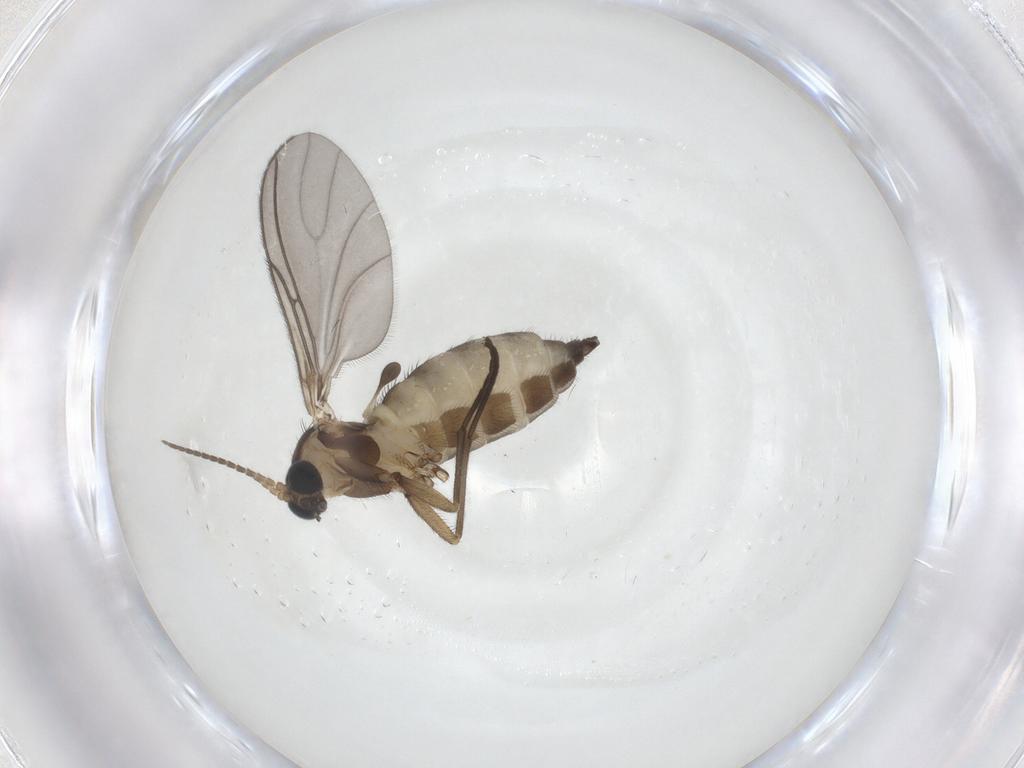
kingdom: Animalia
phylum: Arthropoda
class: Insecta
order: Diptera
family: Sciaridae
